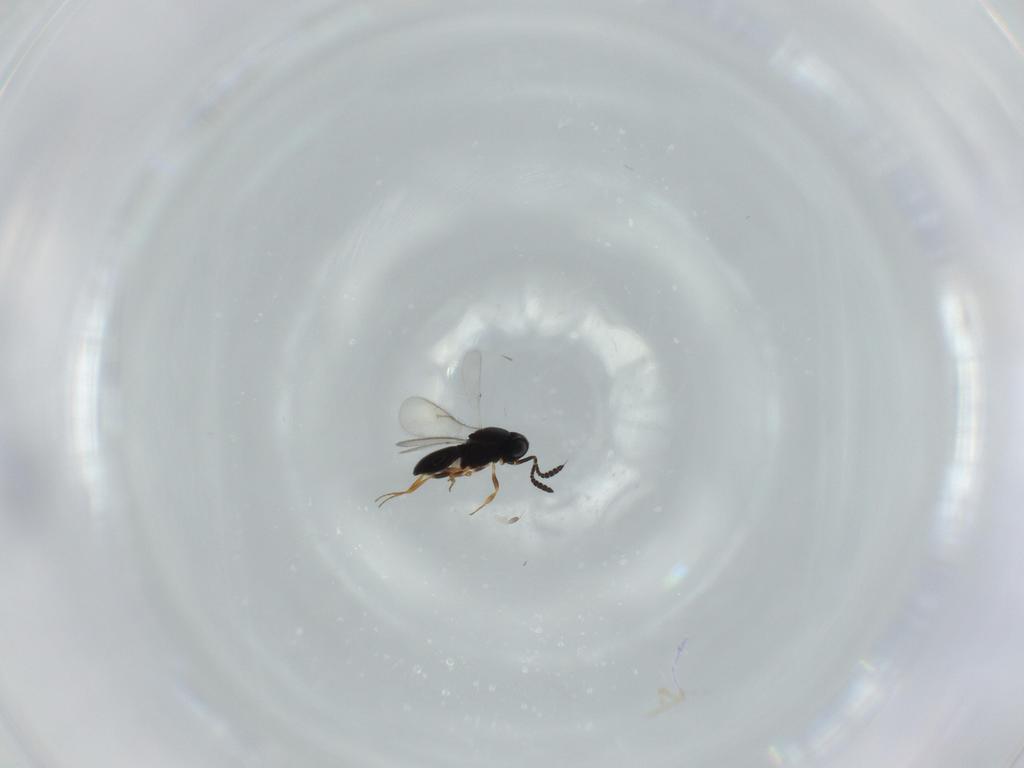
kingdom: Animalia
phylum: Arthropoda
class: Insecta
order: Hymenoptera
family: Scelionidae
